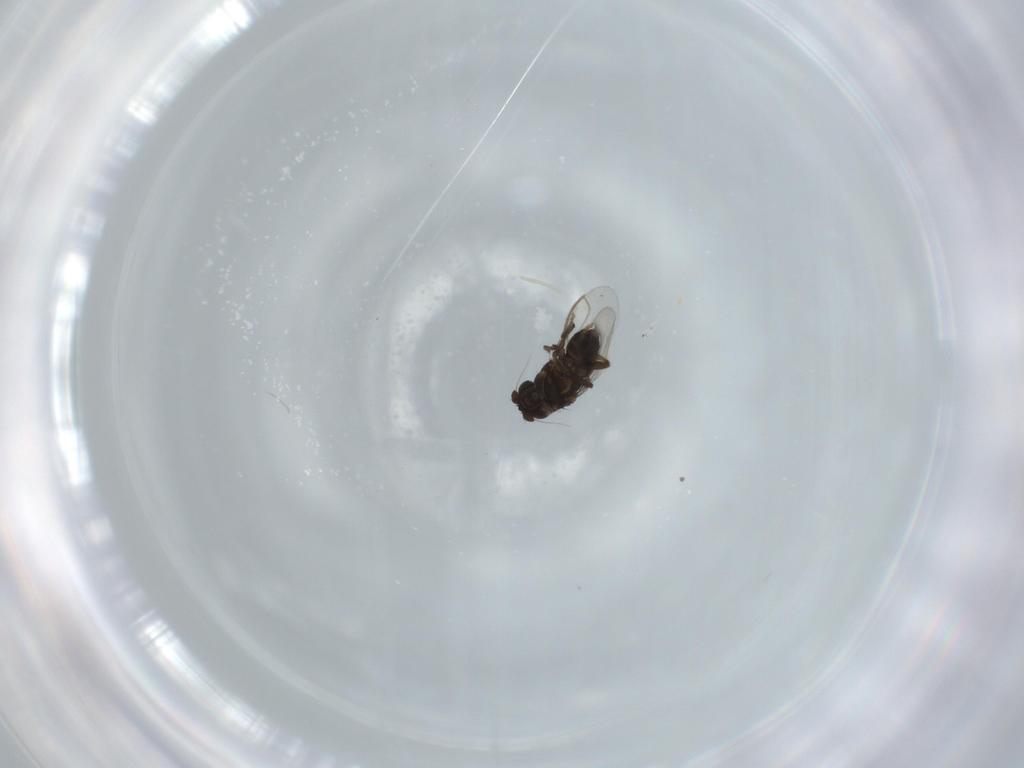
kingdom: Animalia
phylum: Arthropoda
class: Insecta
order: Diptera
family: Sphaeroceridae
